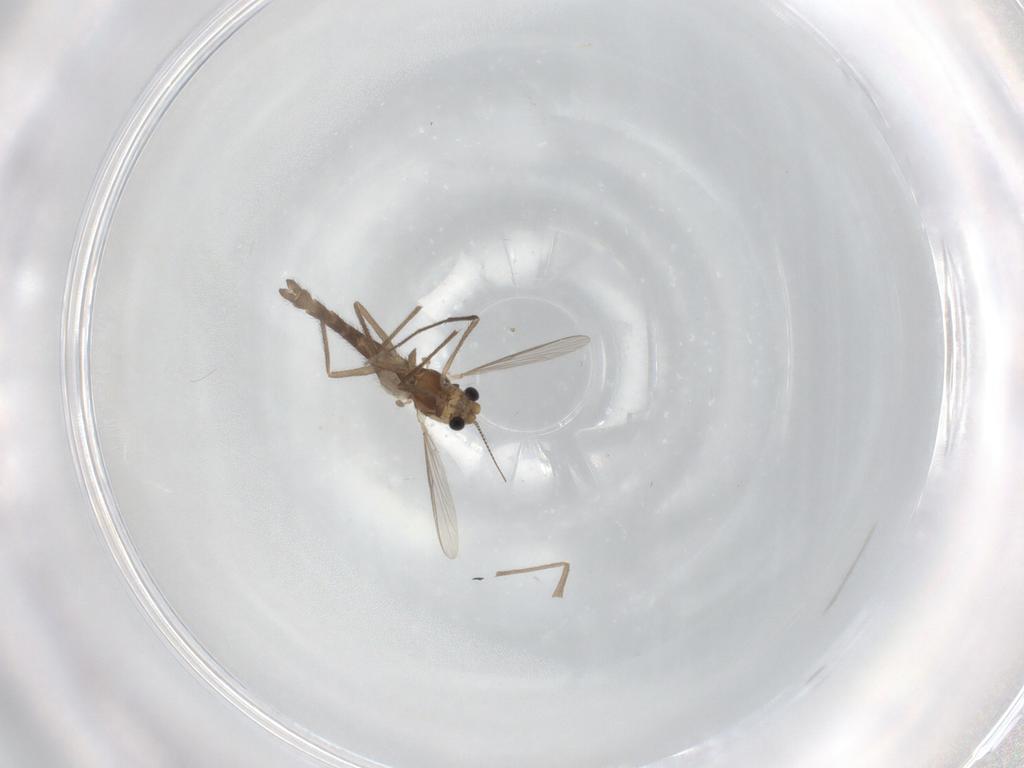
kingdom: Animalia
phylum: Arthropoda
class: Insecta
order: Diptera
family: Chironomidae
